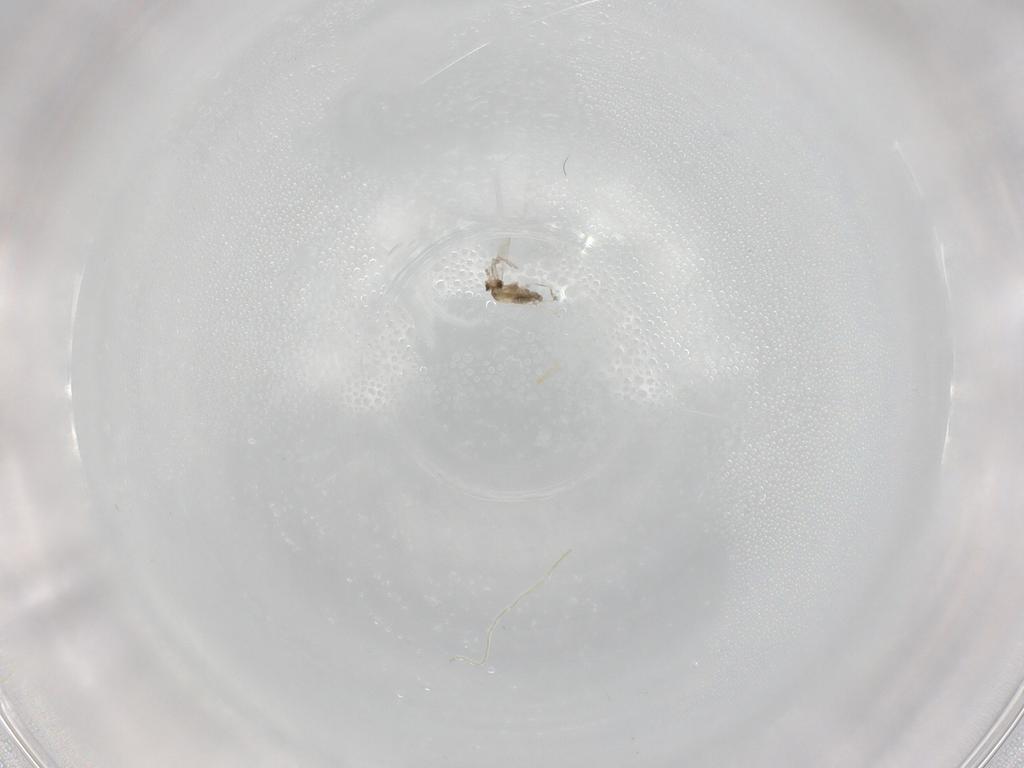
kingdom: Animalia
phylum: Arthropoda
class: Insecta
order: Diptera
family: Cecidomyiidae
